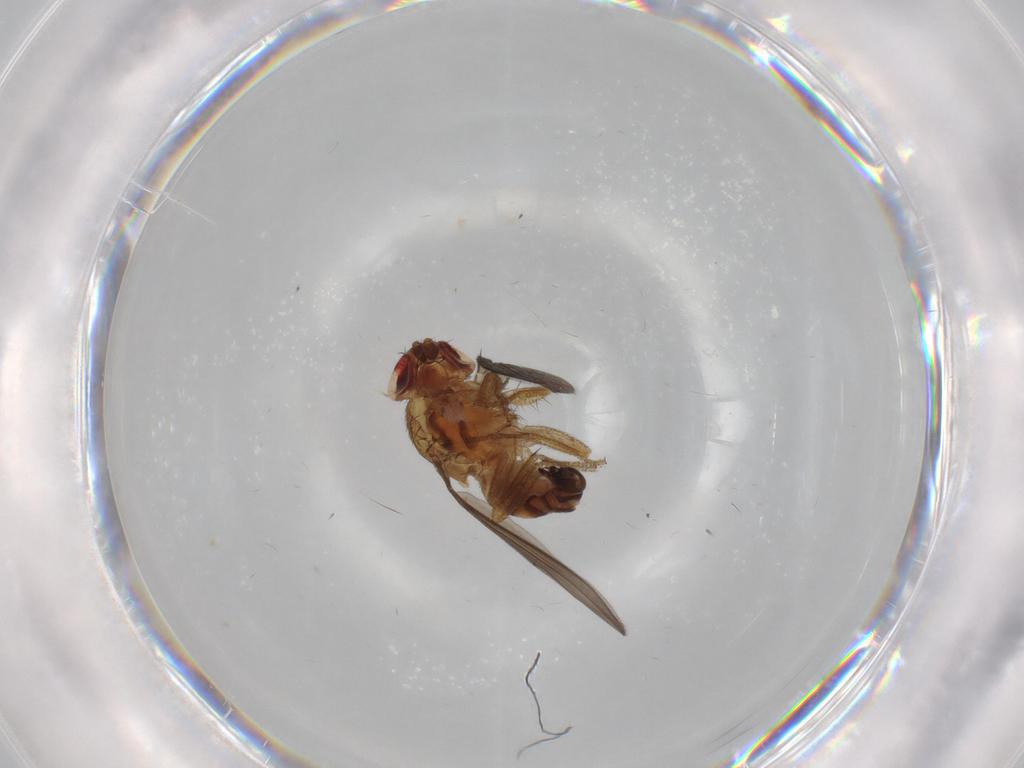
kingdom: Animalia
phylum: Arthropoda
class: Insecta
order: Diptera
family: Drosophilidae
